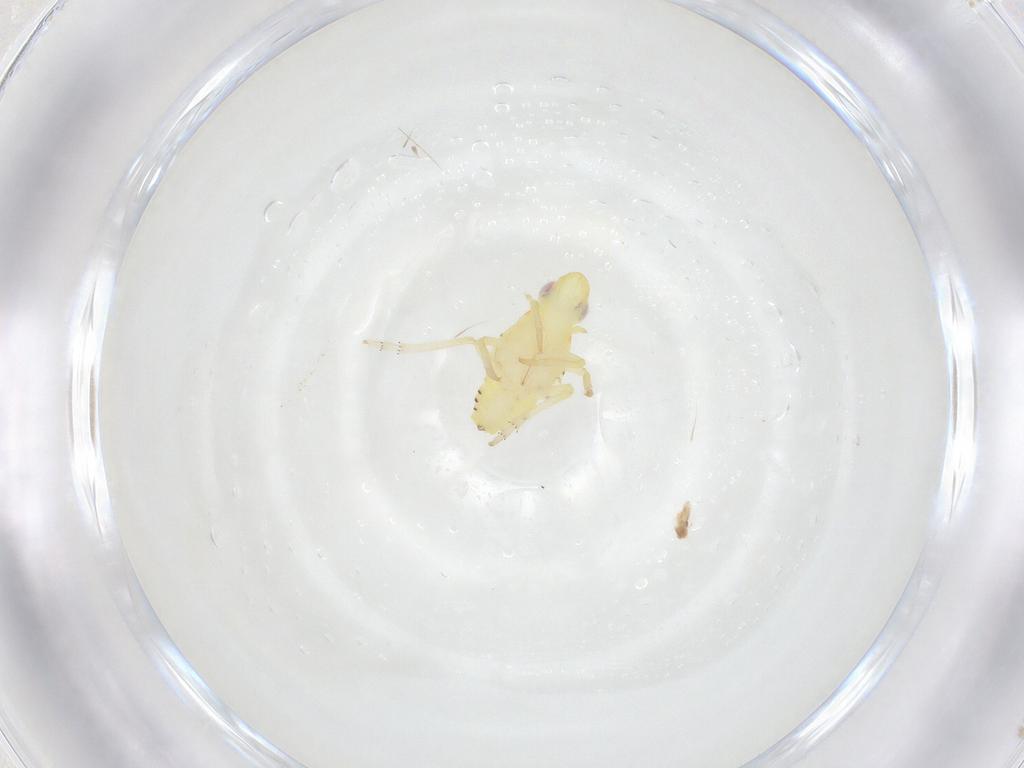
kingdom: Animalia
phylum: Arthropoda
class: Insecta
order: Hemiptera
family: Tropiduchidae
